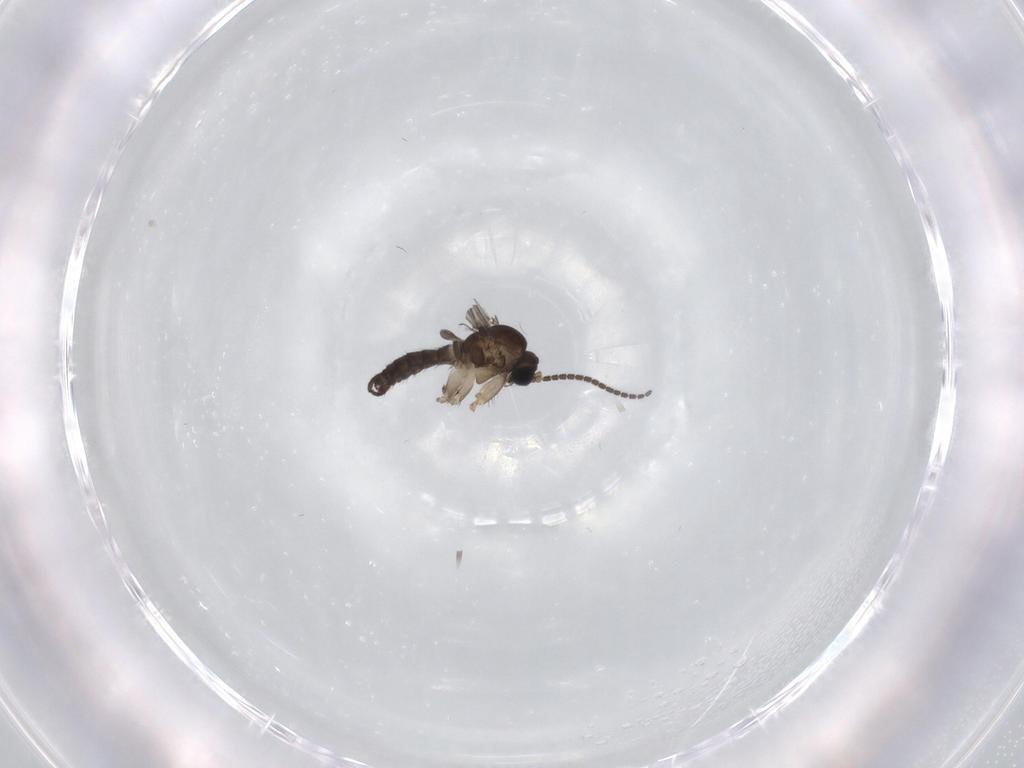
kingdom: Animalia
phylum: Arthropoda
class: Insecta
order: Diptera
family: Sciaridae
